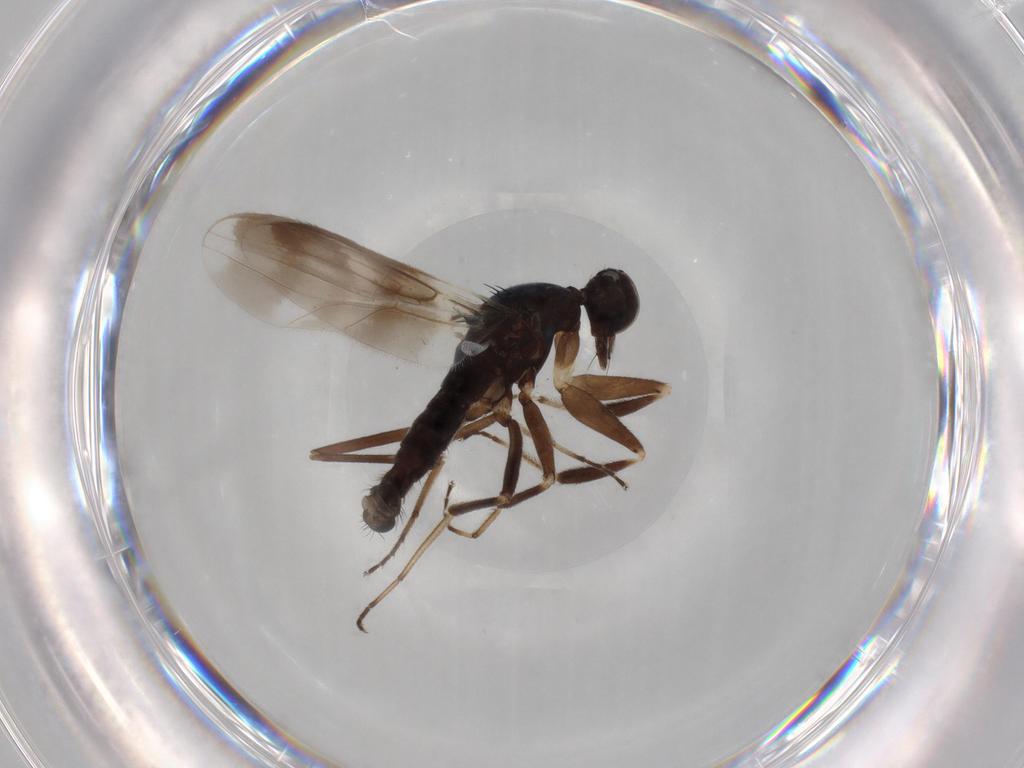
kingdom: Animalia
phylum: Arthropoda
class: Insecta
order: Diptera
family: Hybotidae
